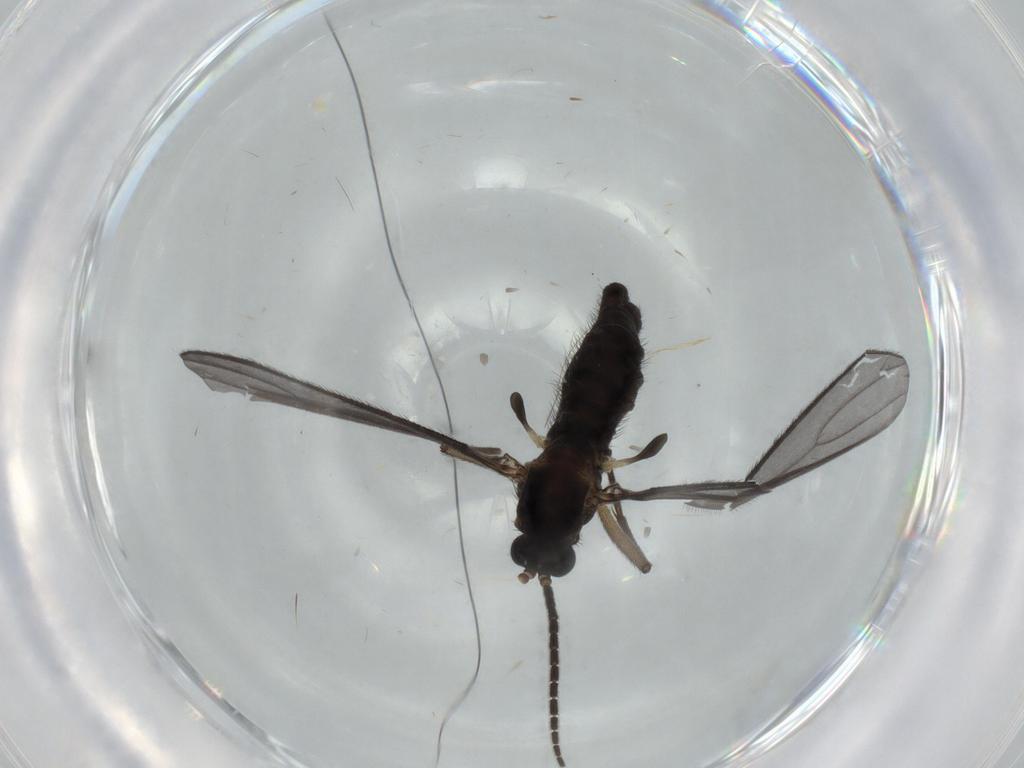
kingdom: Animalia
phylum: Arthropoda
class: Insecta
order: Diptera
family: Sciaridae
